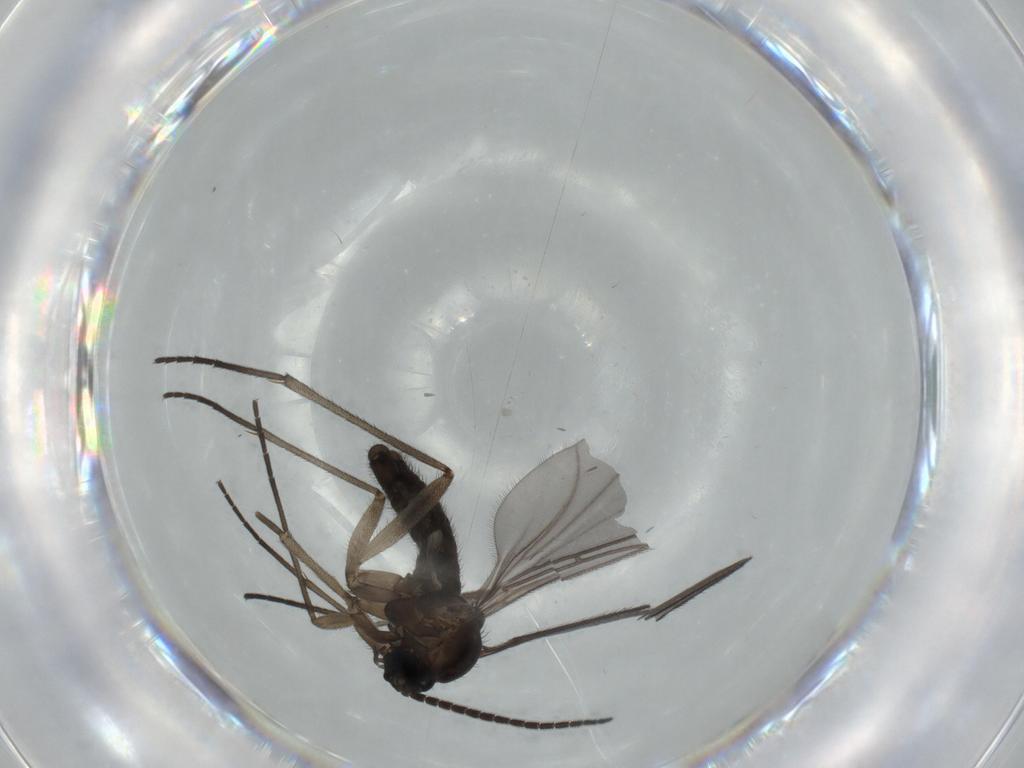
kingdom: Animalia
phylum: Arthropoda
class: Insecta
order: Diptera
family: Sciaridae
